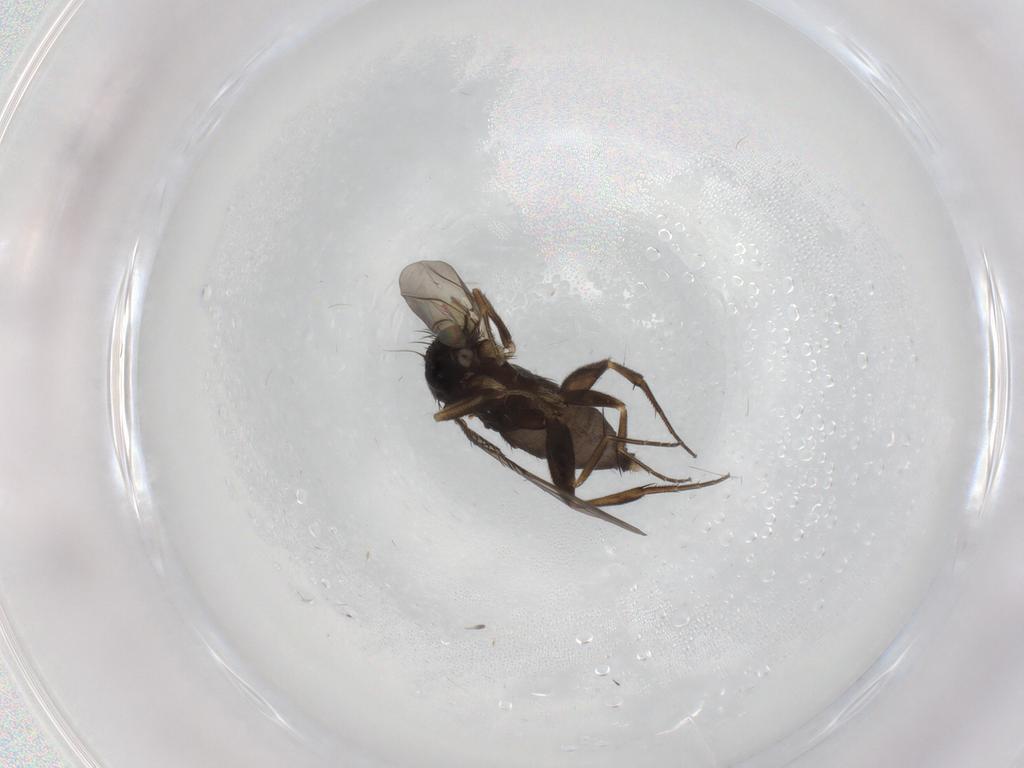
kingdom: Animalia
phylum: Arthropoda
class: Insecta
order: Diptera
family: Phoridae
